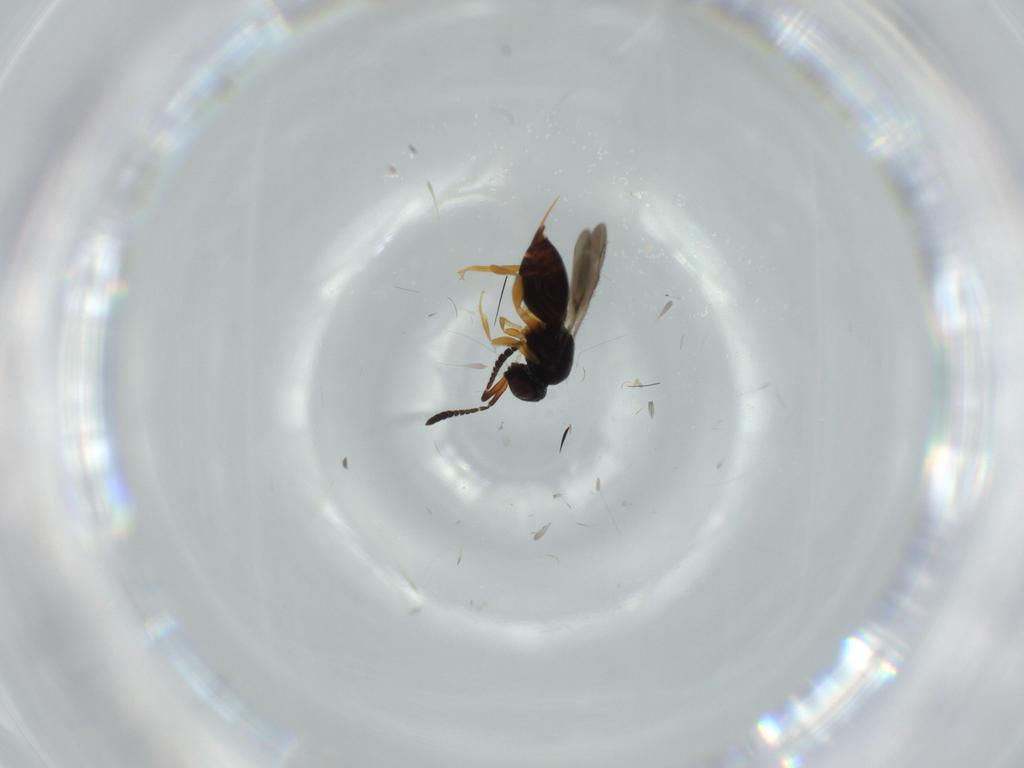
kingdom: Animalia
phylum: Arthropoda
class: Insecta
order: Hymenoptera
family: Ceraphronidae
